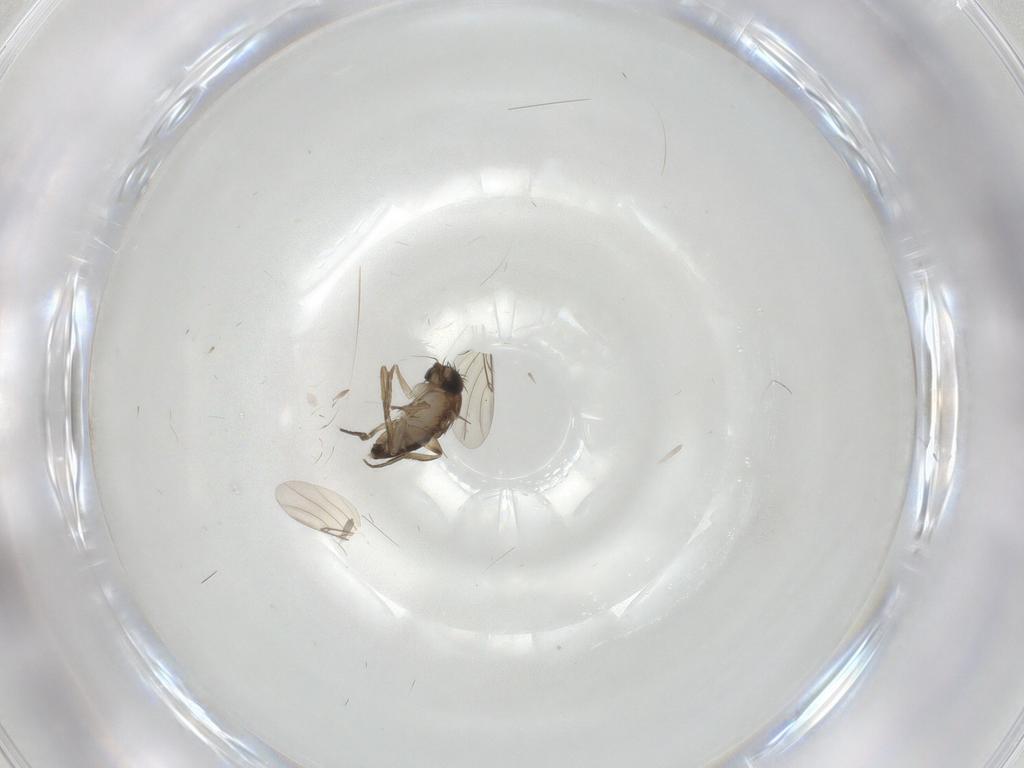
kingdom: Animalia
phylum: Arthropoda
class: Insecta
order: Diptera
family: Phoridae
